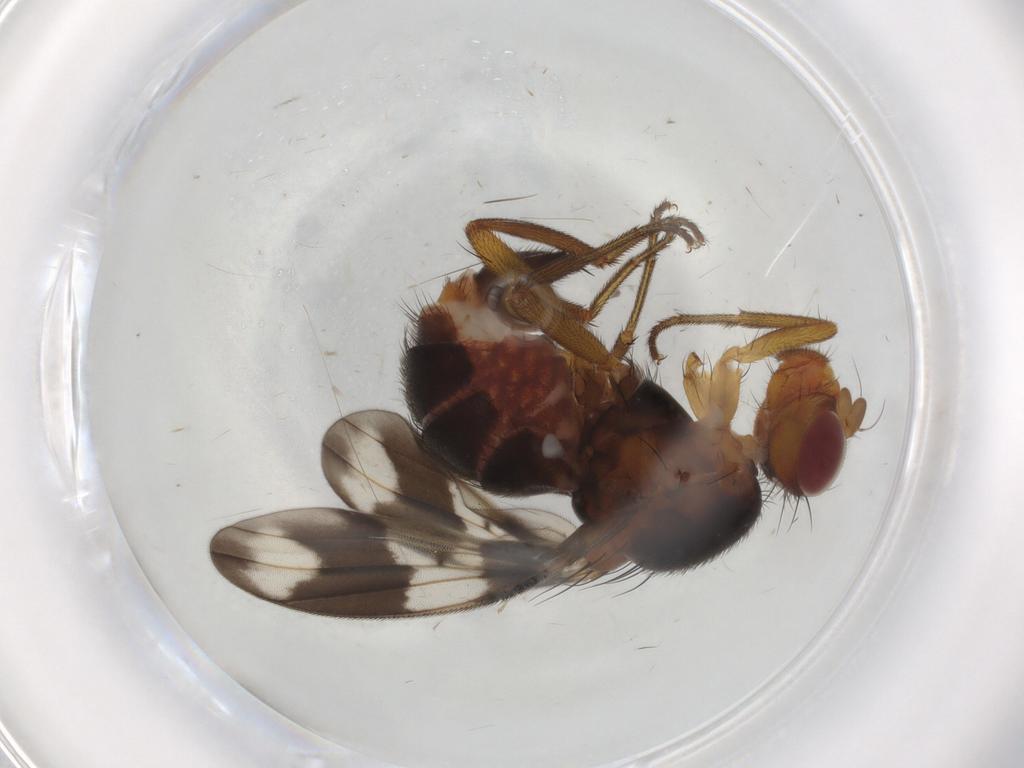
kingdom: Animalia
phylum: Arthropoda
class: Insecta
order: Diptera
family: Richardiidae
